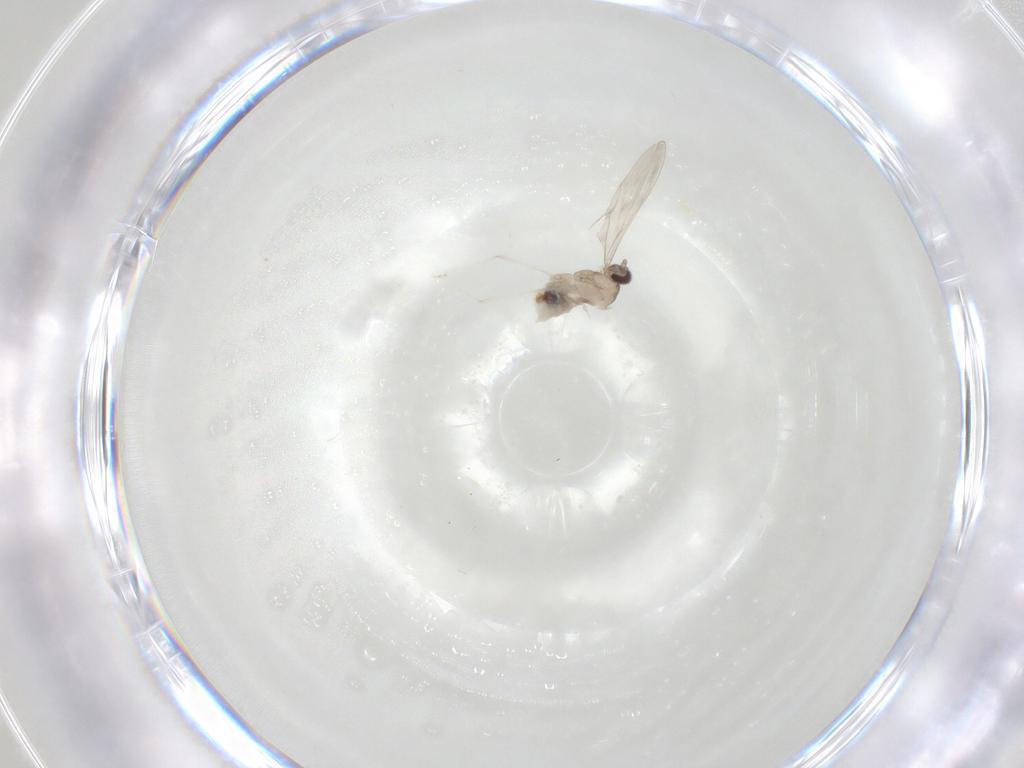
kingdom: Animalia
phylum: Arthropoda
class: Insecta
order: Diptera
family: Cecidomyiidae
